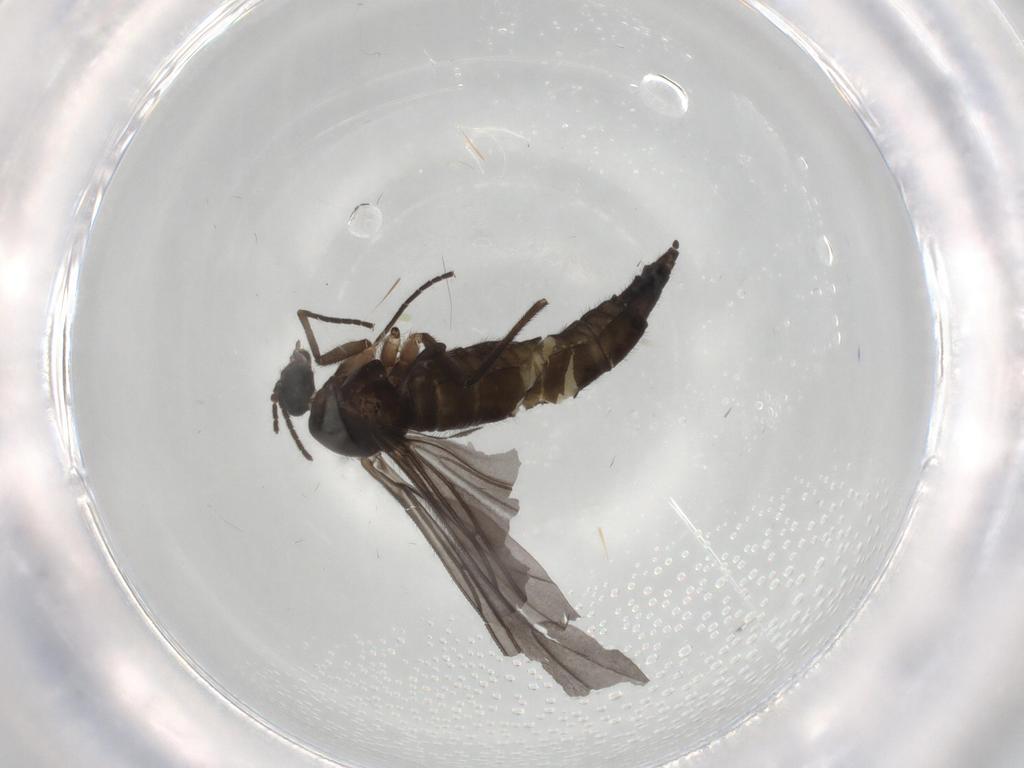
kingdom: Animalia
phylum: Arthropoda
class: Insecta
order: Diptera
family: Sciaridae
